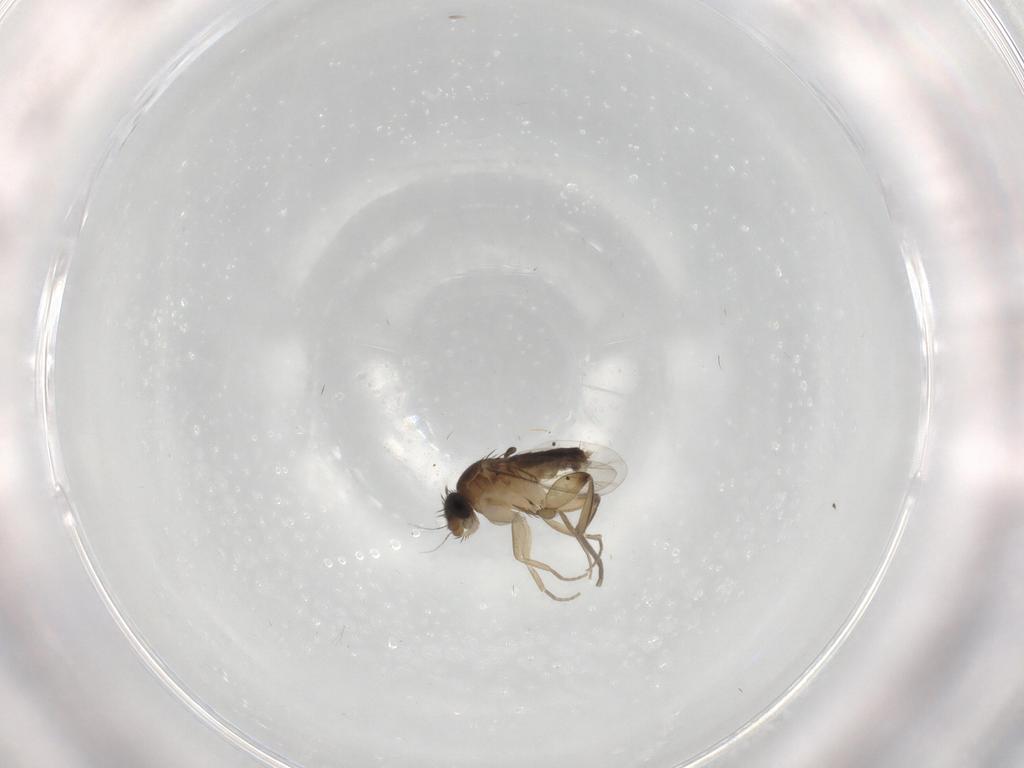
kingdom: Animalia
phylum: Arthropoda
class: Insecta
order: Diptera
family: Phoridae
